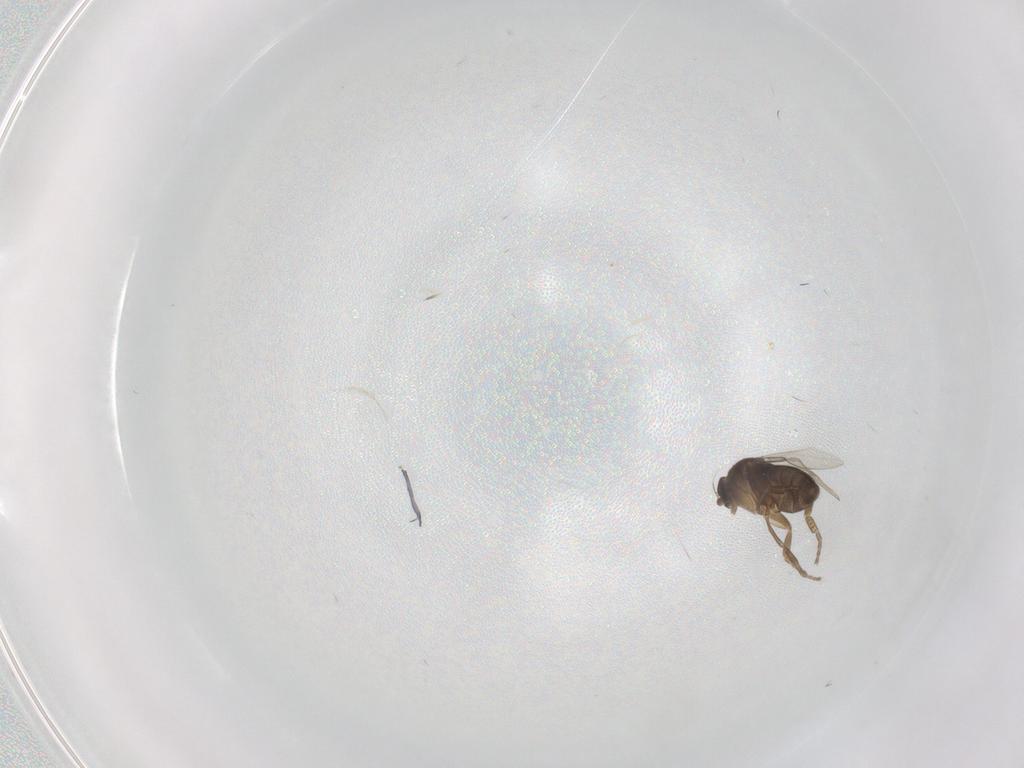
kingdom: Animalia
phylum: Arthropoda
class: Insecta
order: Diptera
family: Phoridae
